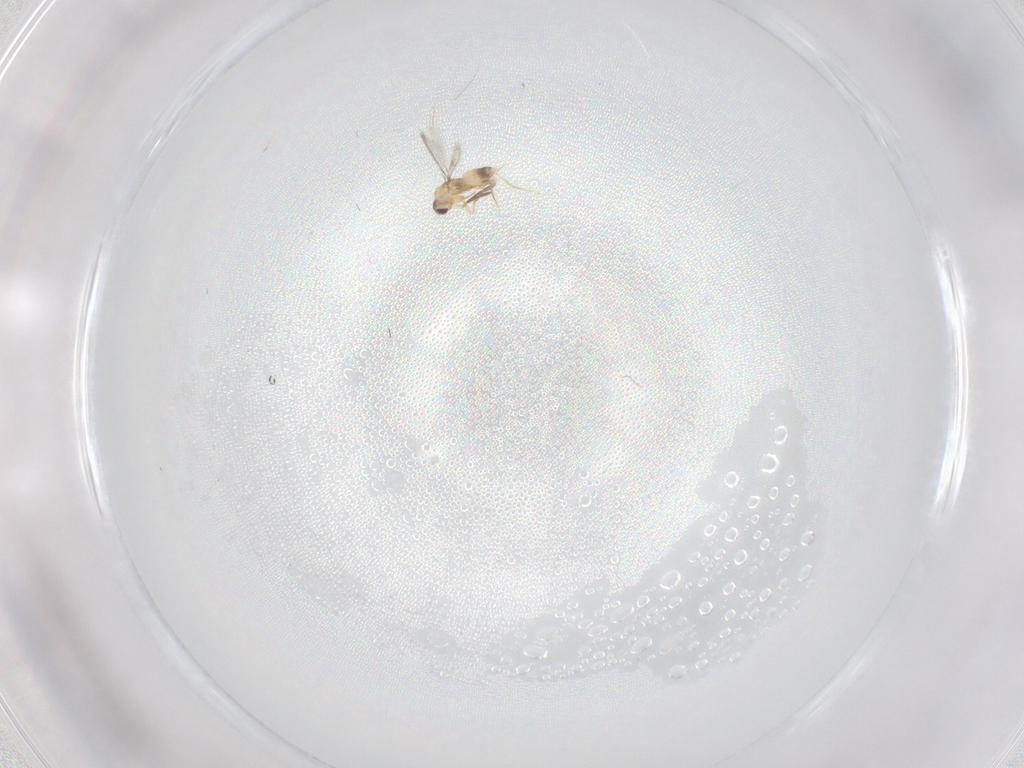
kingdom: Animalia
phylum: Arthropoda
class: Insecta
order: Hymenoptera
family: Mymaridae
